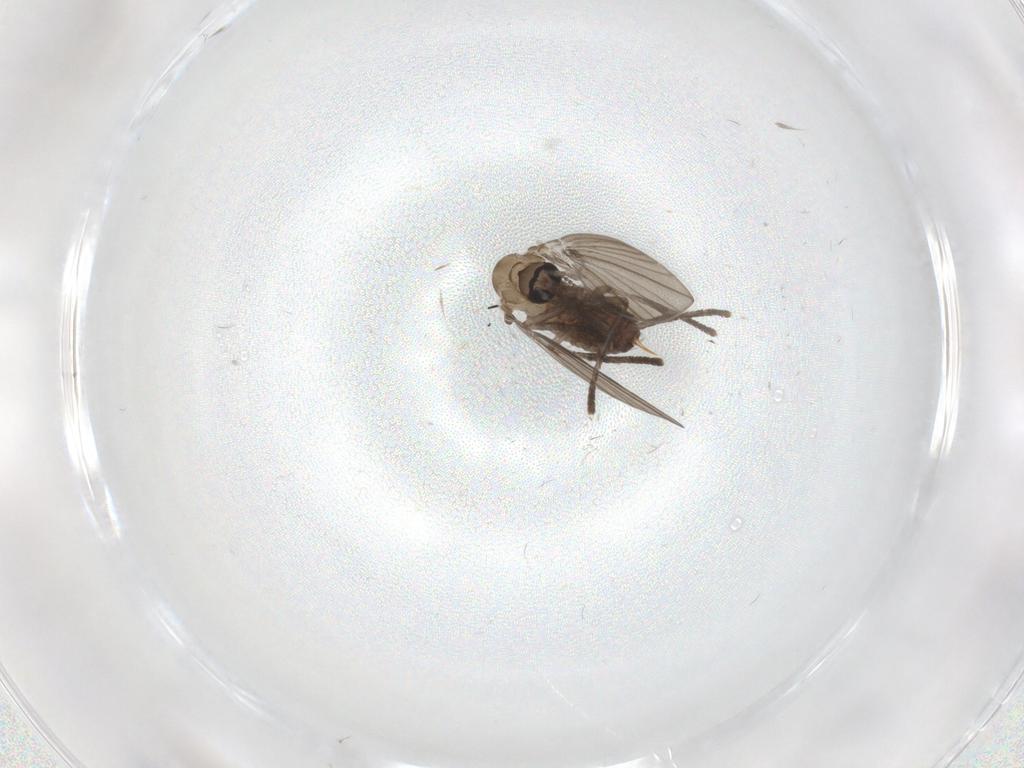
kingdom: Animalia
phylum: Arthropoda
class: Insecta
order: Diptera
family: Psychodidae
